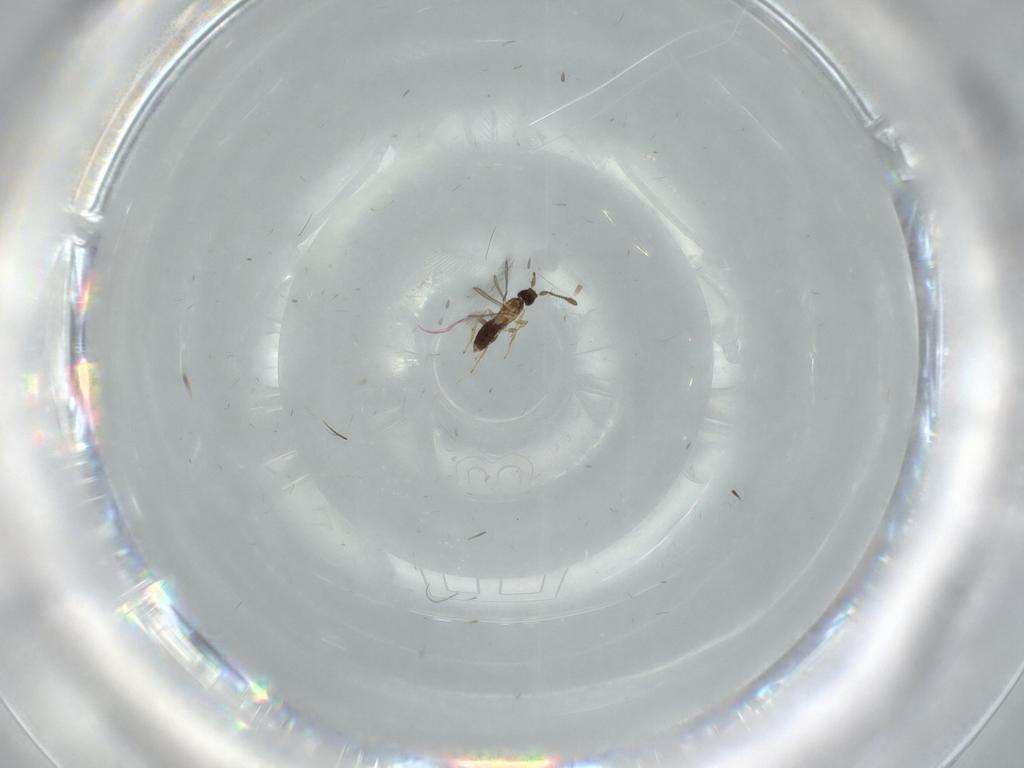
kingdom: Animalia
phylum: Arthropoda
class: Insecta
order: Hymenoptera
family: Mymaridae
